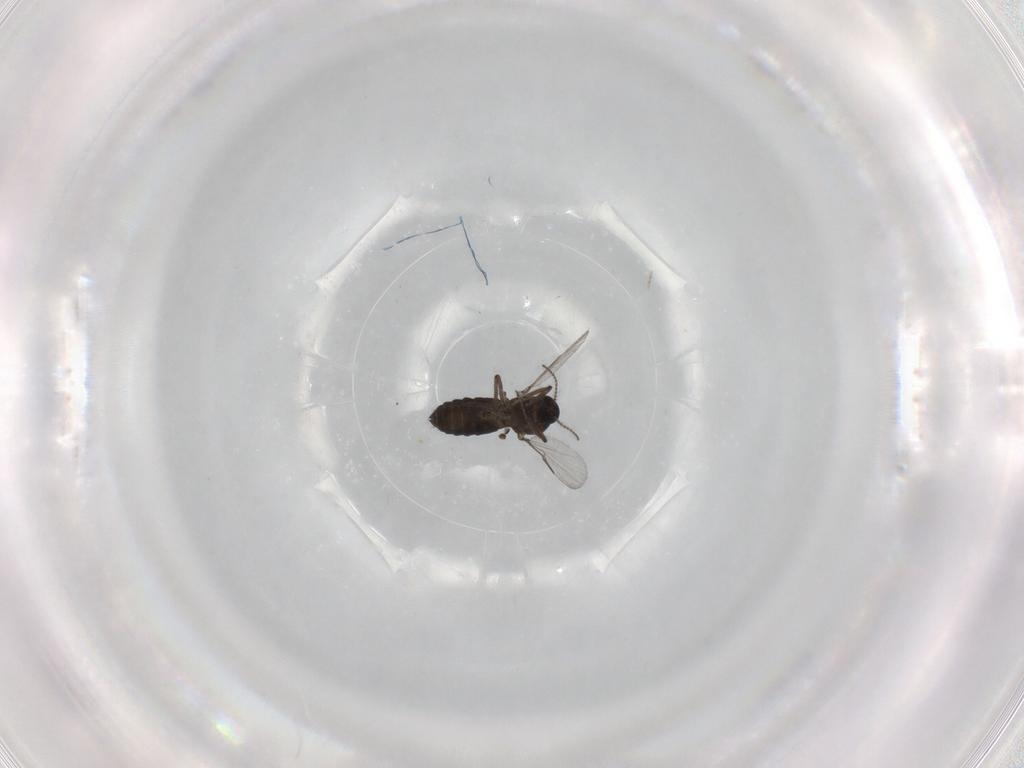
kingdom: Animalia
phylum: Arthropoda
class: Insecta
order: Diptera
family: Ceratopogonidae
